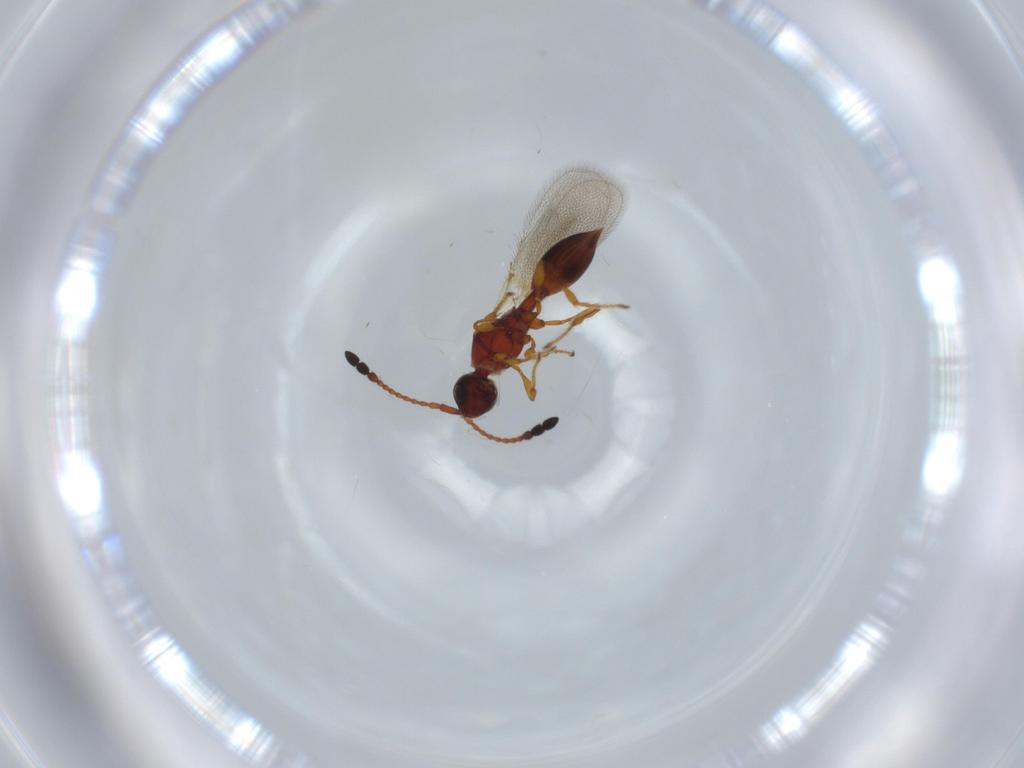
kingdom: Animalia
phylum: Arthropoda
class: Insecta
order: Hymenoptera
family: Diapriidae
